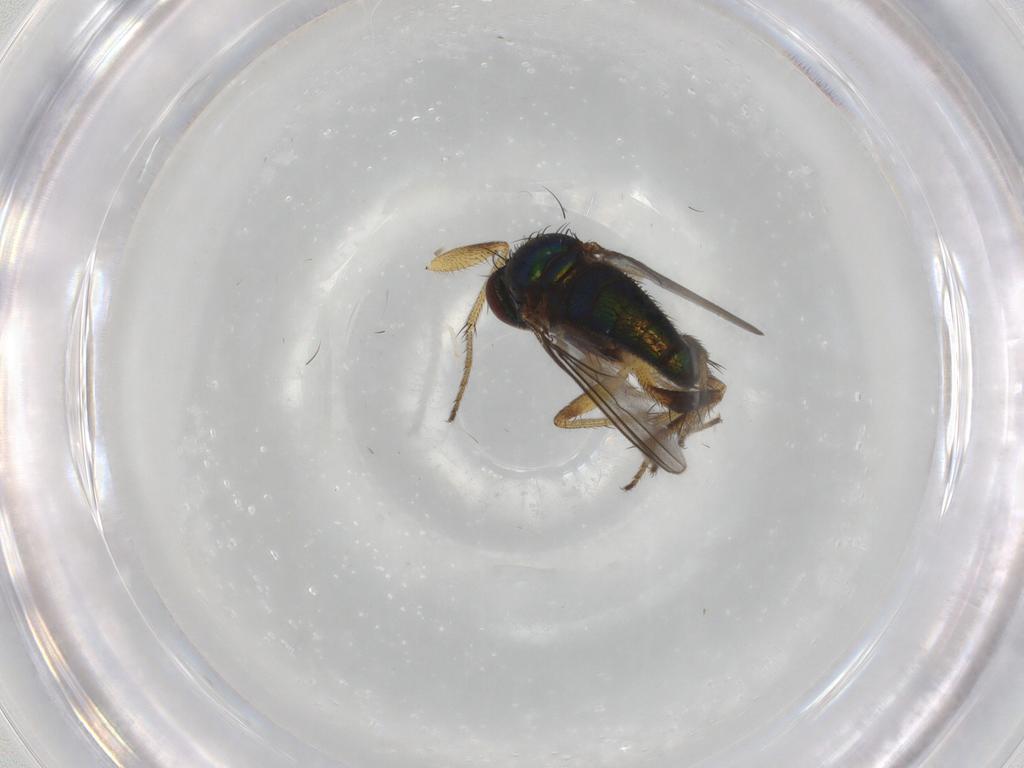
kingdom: Animalia
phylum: Arthropoda
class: Insecta
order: Diptera
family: Dolichopodidae
